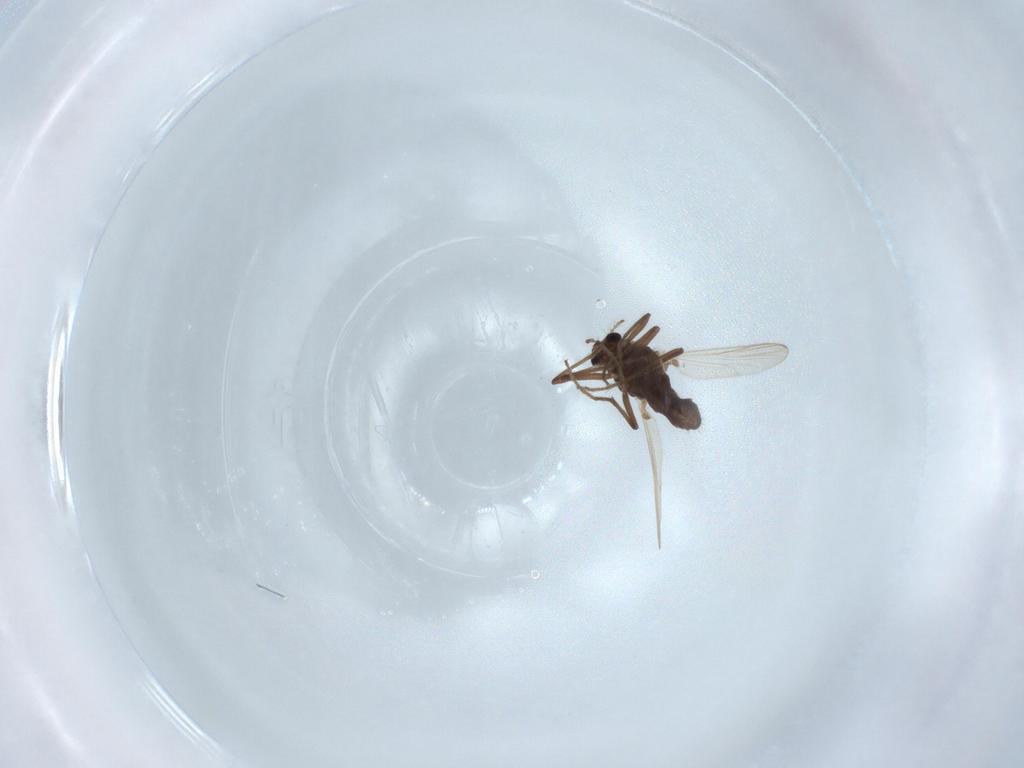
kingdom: Animalia
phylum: Arthropoda
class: Insecta
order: Diptera
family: Chironomidae
